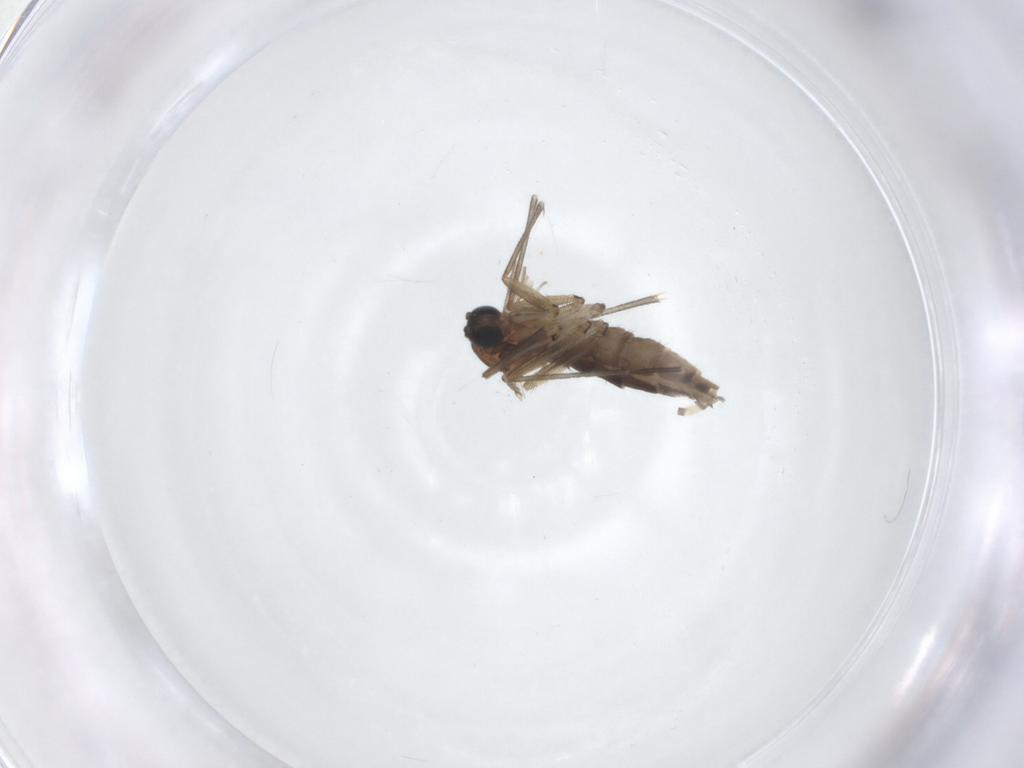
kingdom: Animalia
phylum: Arthropoda
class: Insecta
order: Diptera
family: Sciaridae
